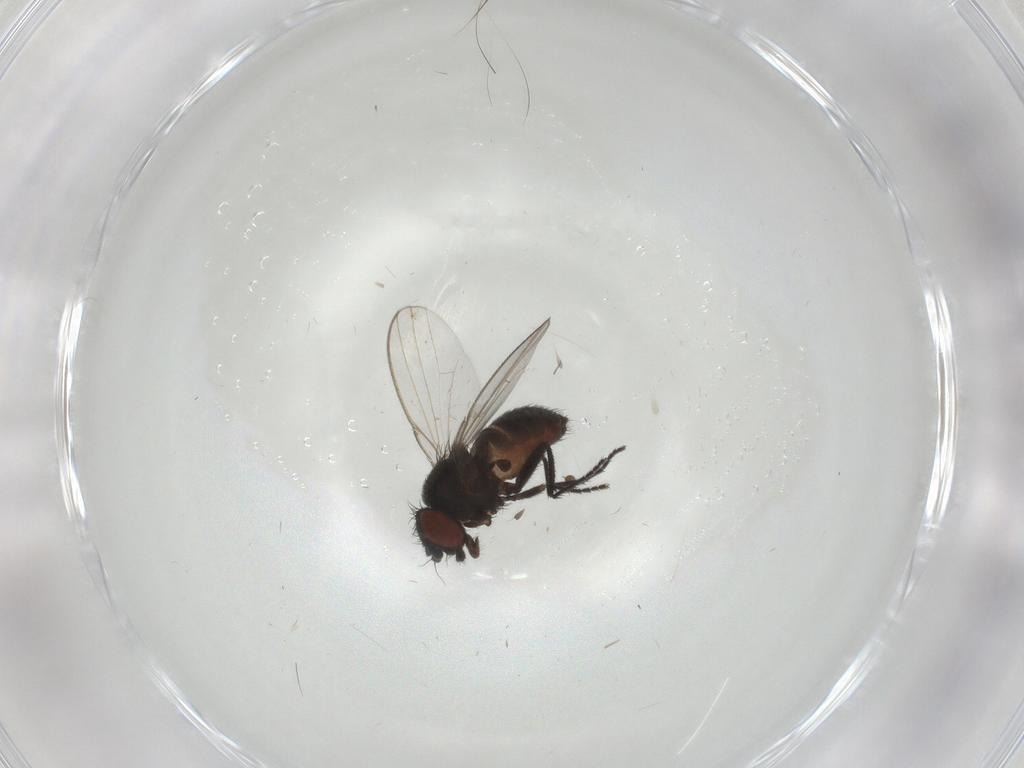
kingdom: Animalia
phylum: Arthropoda
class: Insecta
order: Diptera
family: Milichiidae
